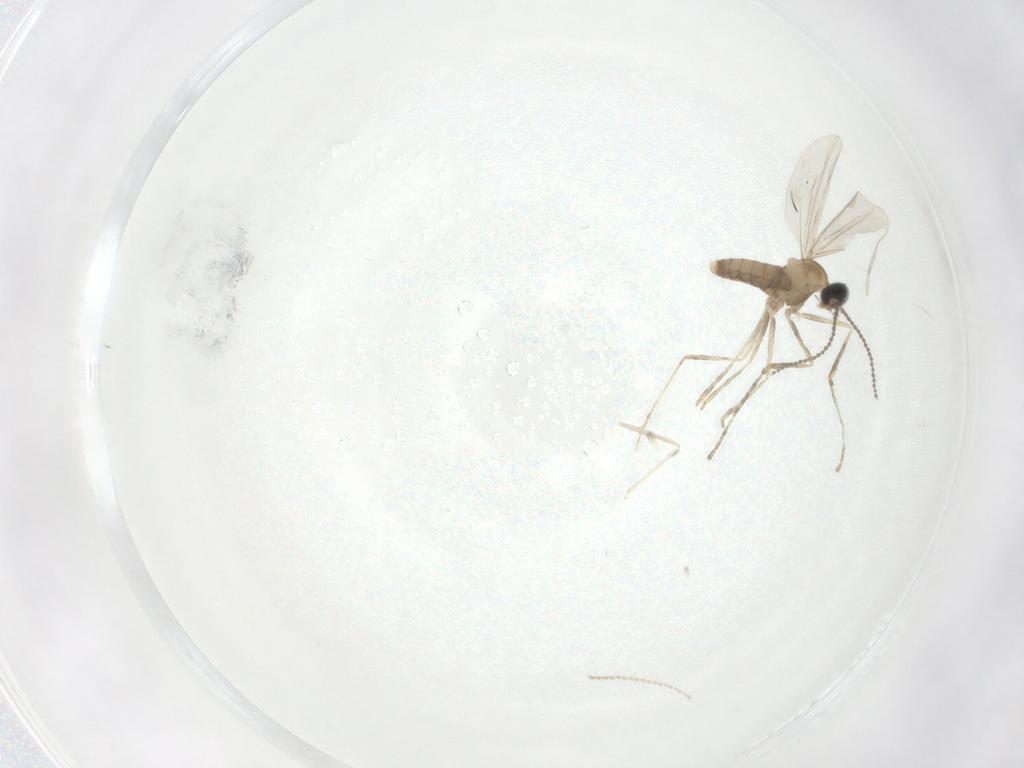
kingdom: Animalia
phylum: Arthropoda
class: Insecta
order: Diptera
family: Cecidomyiidae
